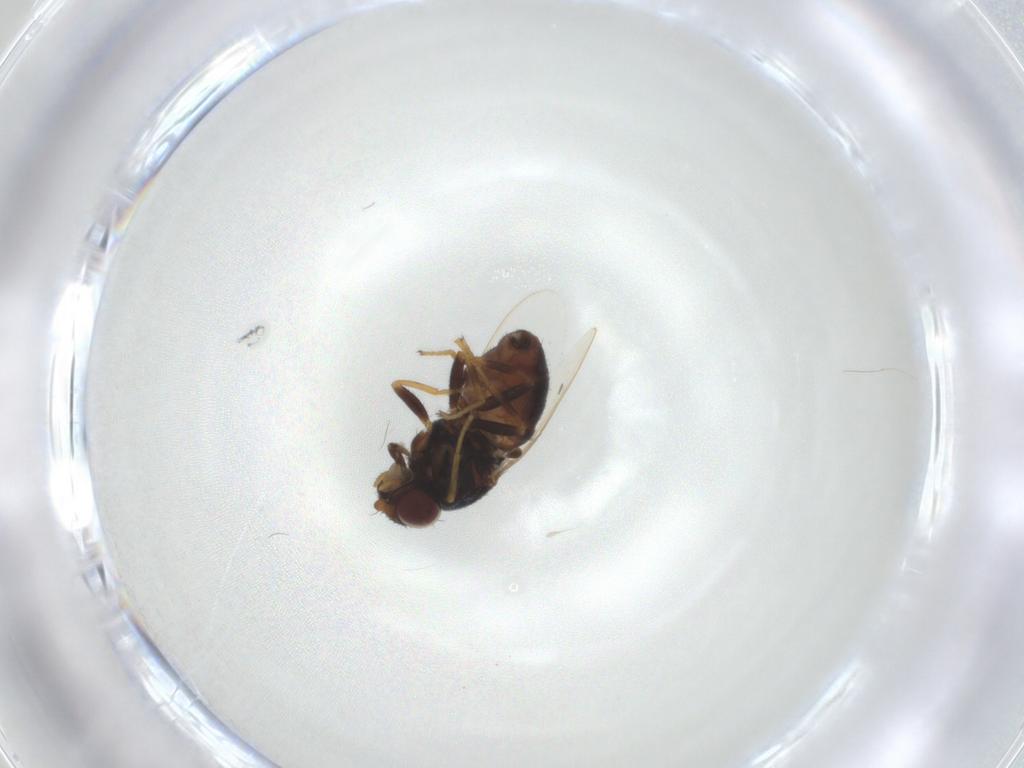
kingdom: Animalia
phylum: Arthropoda
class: Insecta
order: Diptera
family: Chloropidae
